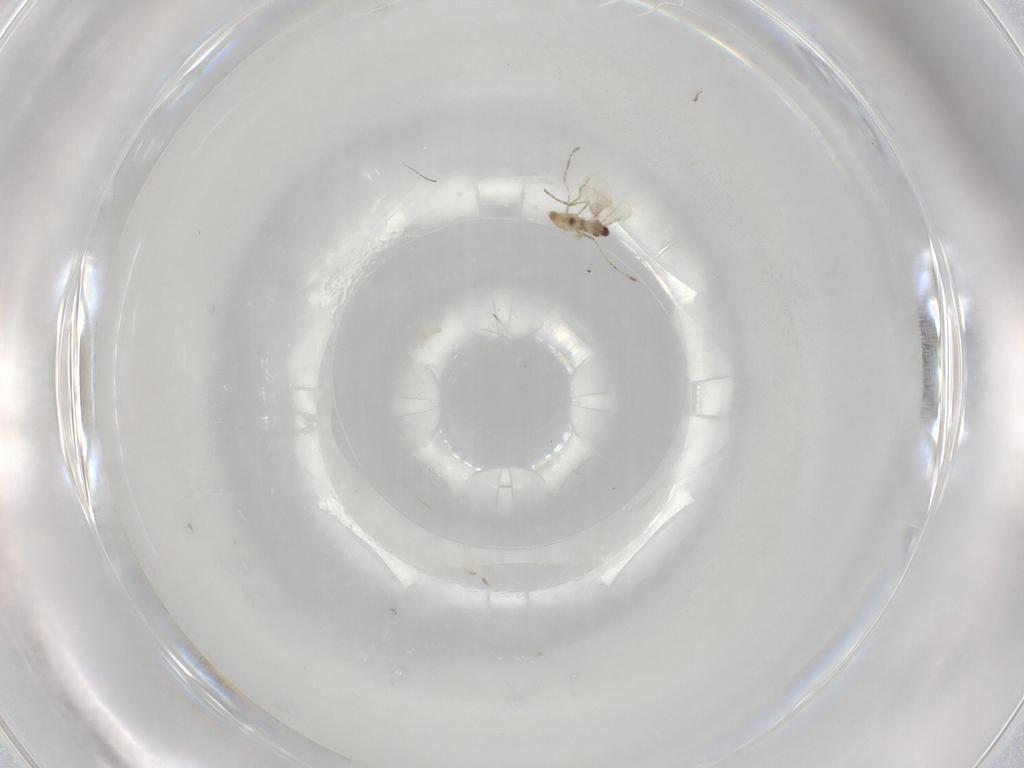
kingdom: Animalia
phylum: Arthropoda
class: Insecta
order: Diptera
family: Cecidomyiidae
